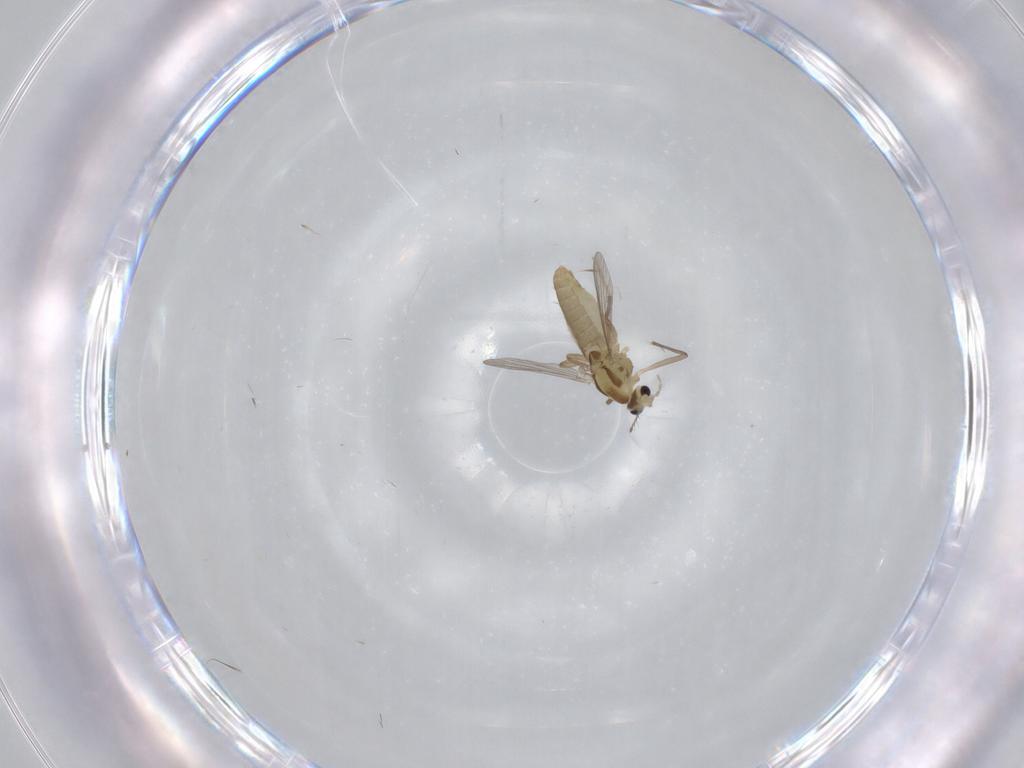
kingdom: Animalia
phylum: Arthropoda
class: Insecta
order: Diptera
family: Chironomidae
